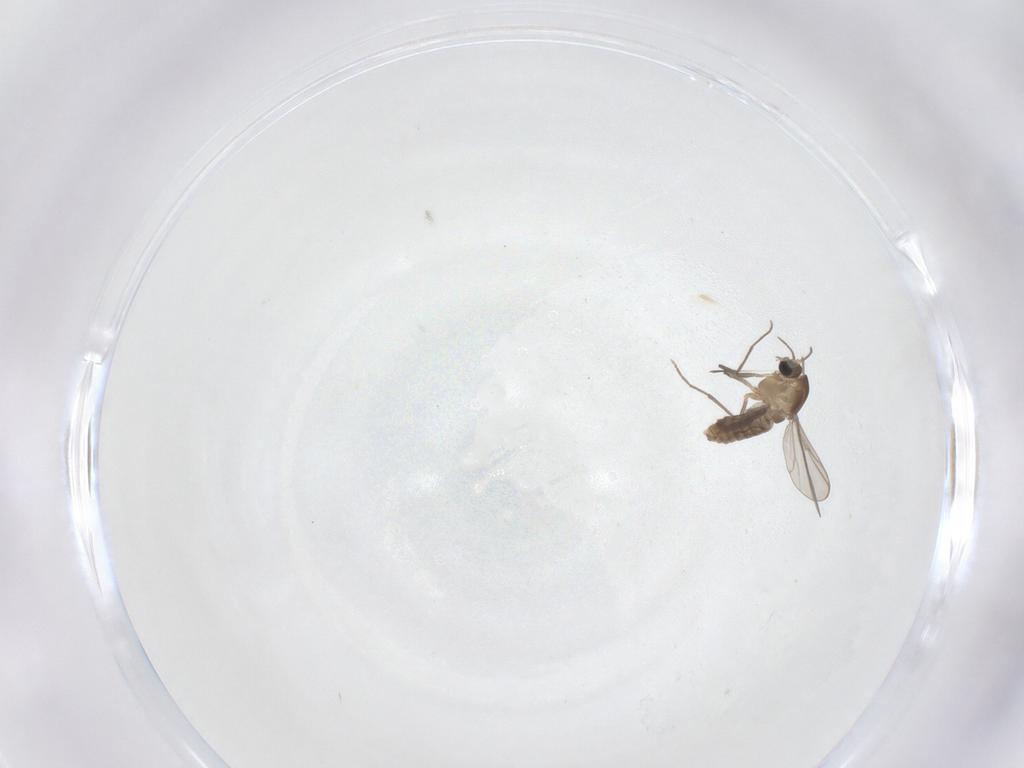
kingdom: Animalia
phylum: Arthropoda
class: Insecta
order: Diptera
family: Chironomidae
